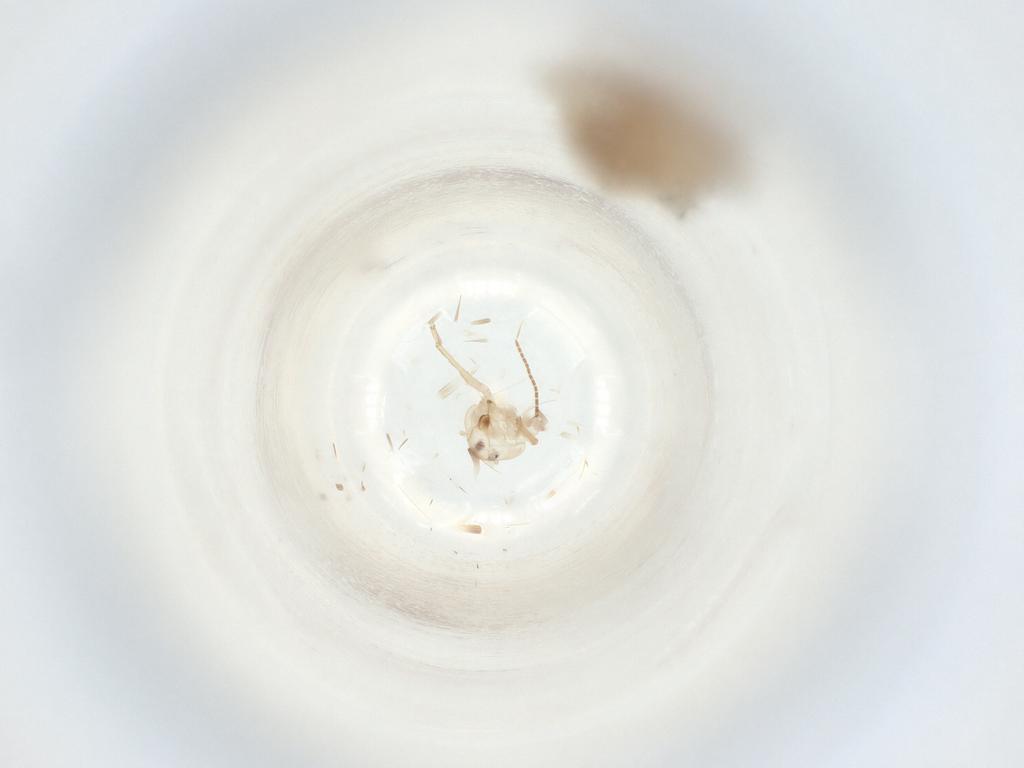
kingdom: Animalia
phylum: Arthropoda
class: Insecta
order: Hemiptera
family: Cicadellidae
